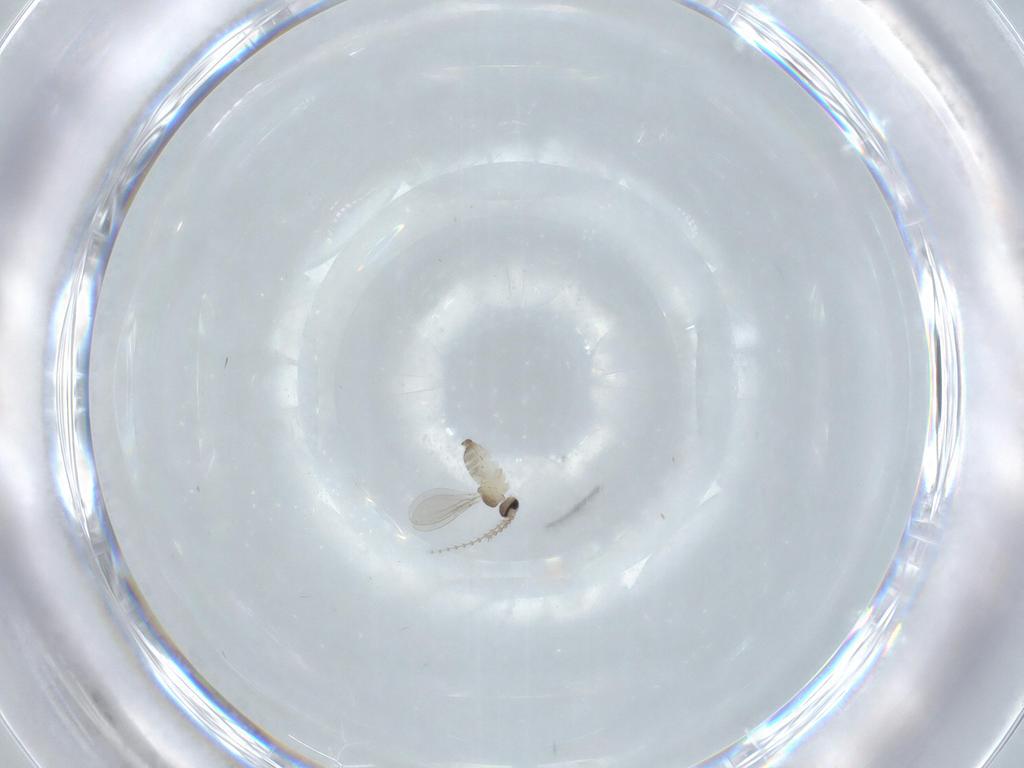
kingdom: Animalia
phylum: Arthropoda
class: Insecta
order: Diptera
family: Cecidomyiidae
